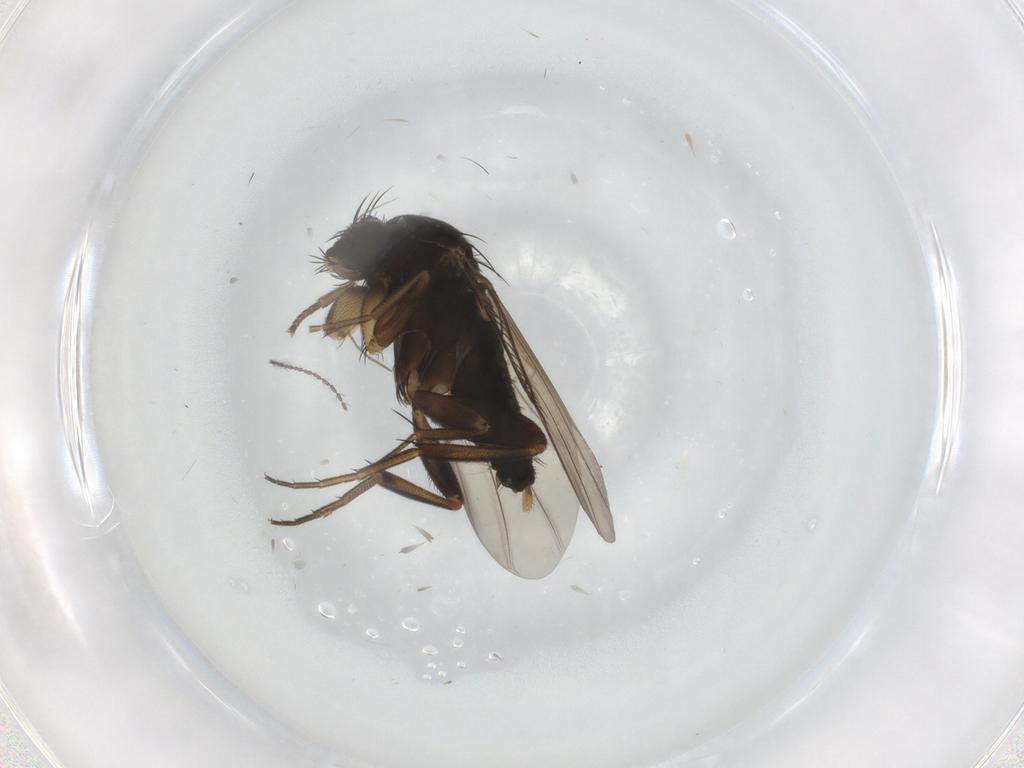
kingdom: Animalia
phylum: Arthropoda
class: Insecta
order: Diptera
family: Phoridae
